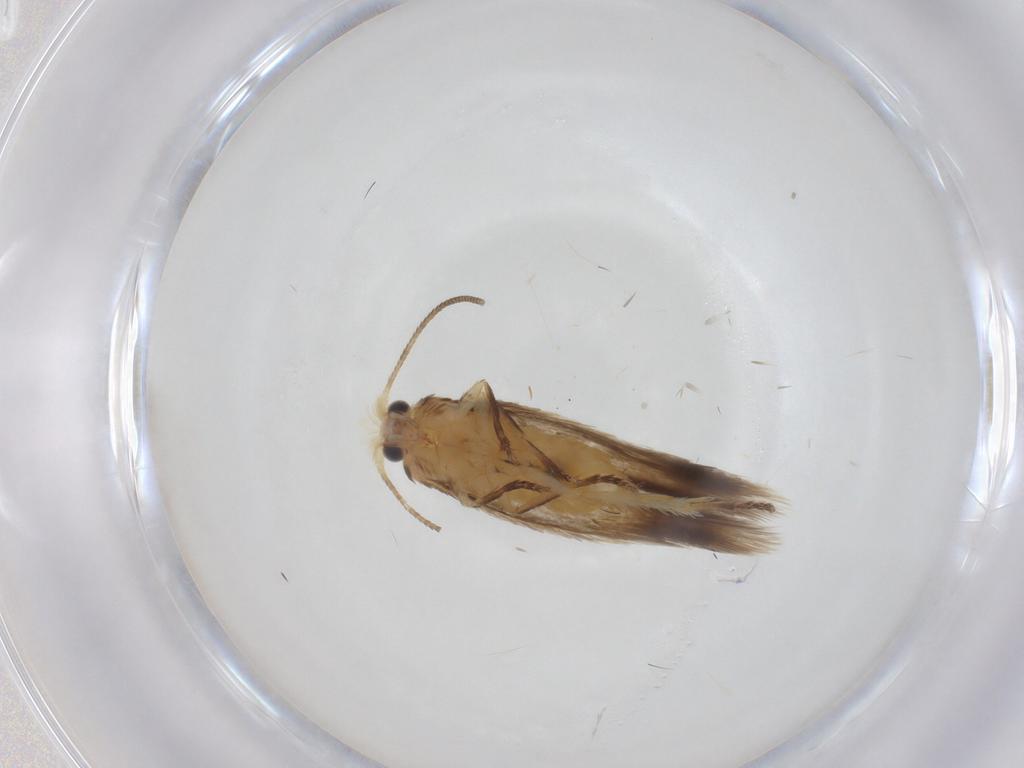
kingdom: Animalia
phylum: Arthropoda
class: Insecta
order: Lepidoptera
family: Nepticulidae
